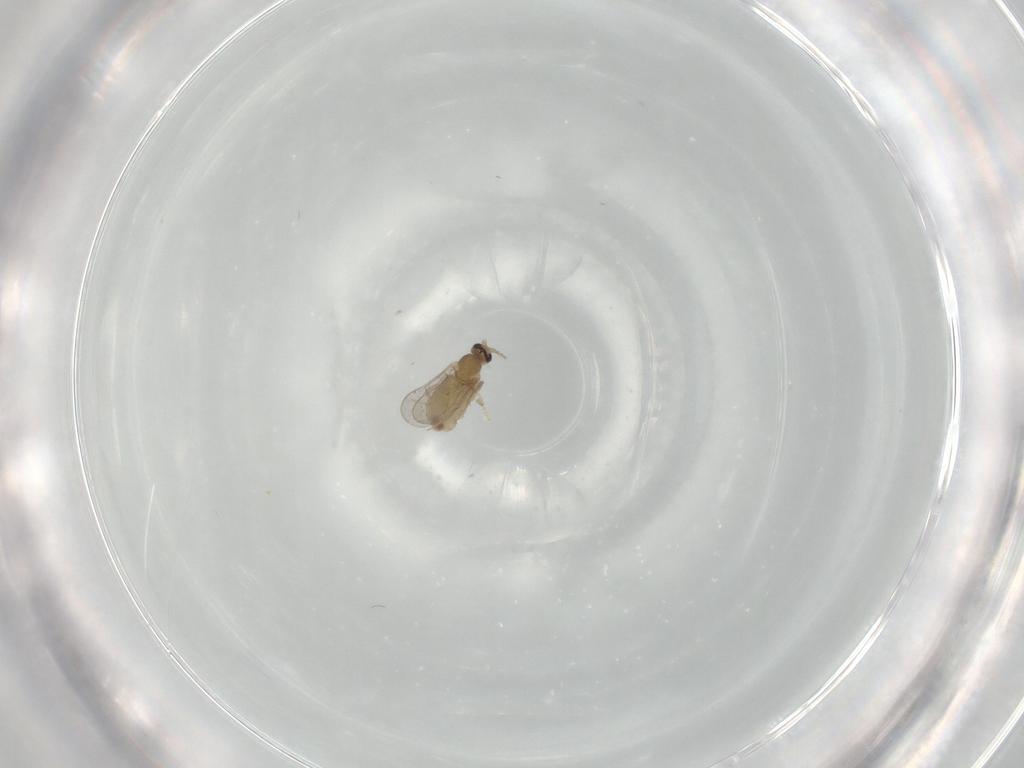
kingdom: Animalia
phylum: Arthropoda
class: Insecta
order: Diptera
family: Cecidomyiidae
